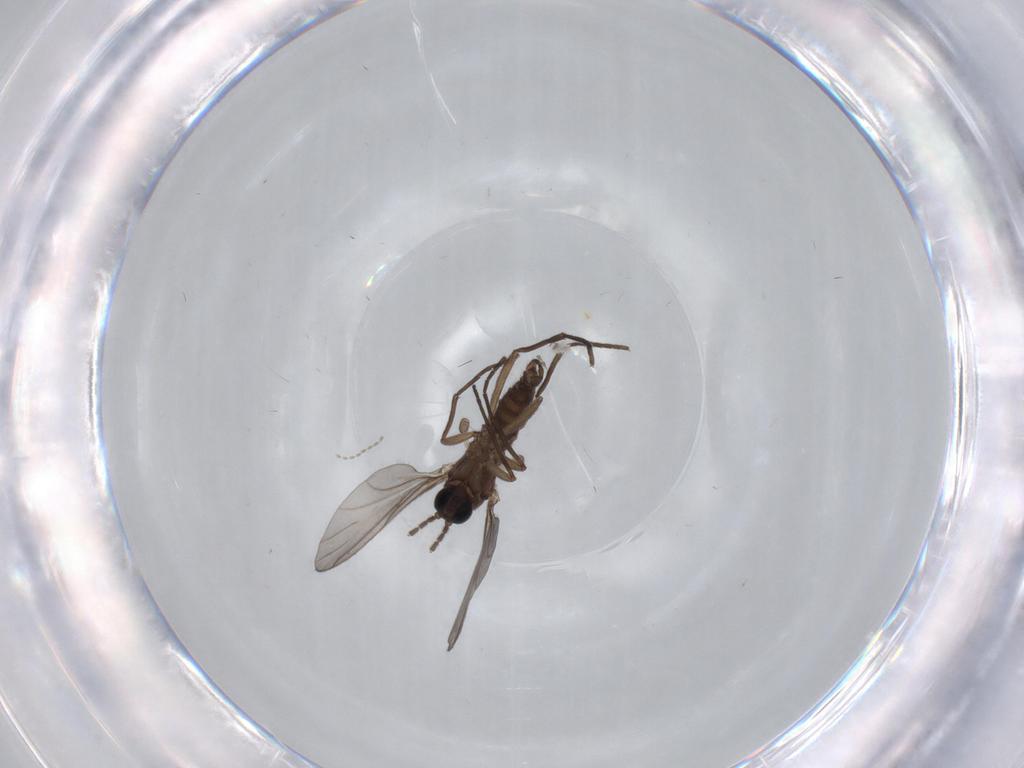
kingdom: Animalia
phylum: Arthropoda
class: Insecta
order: Diptera
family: Sciaridae
